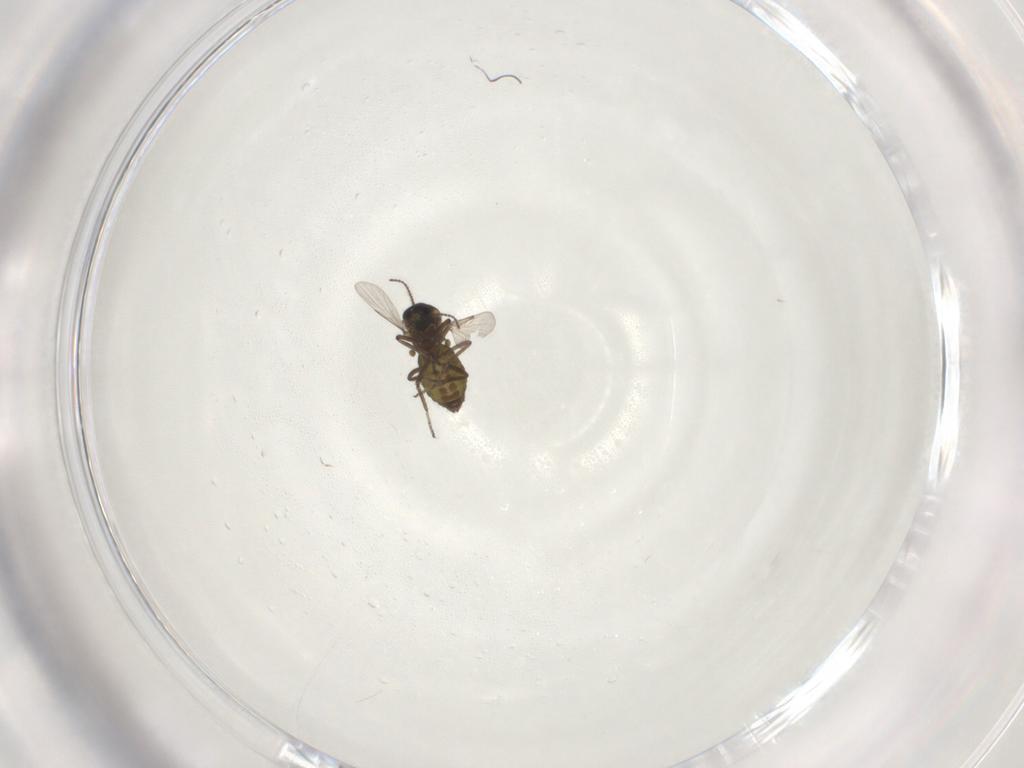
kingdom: Animalia
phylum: Arthropoda
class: Insecta
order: Diptera
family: Ceratopogonidae
